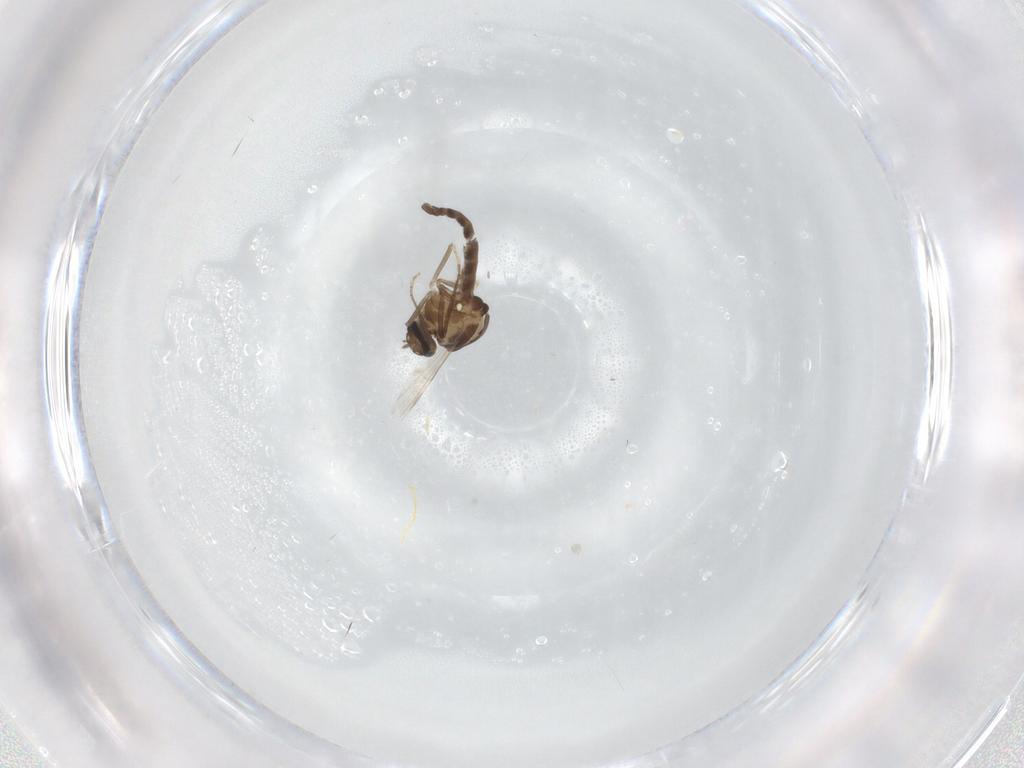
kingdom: Animalia
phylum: Arthropoda
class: Insecta
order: Diptera
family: Ceratopogonidae
